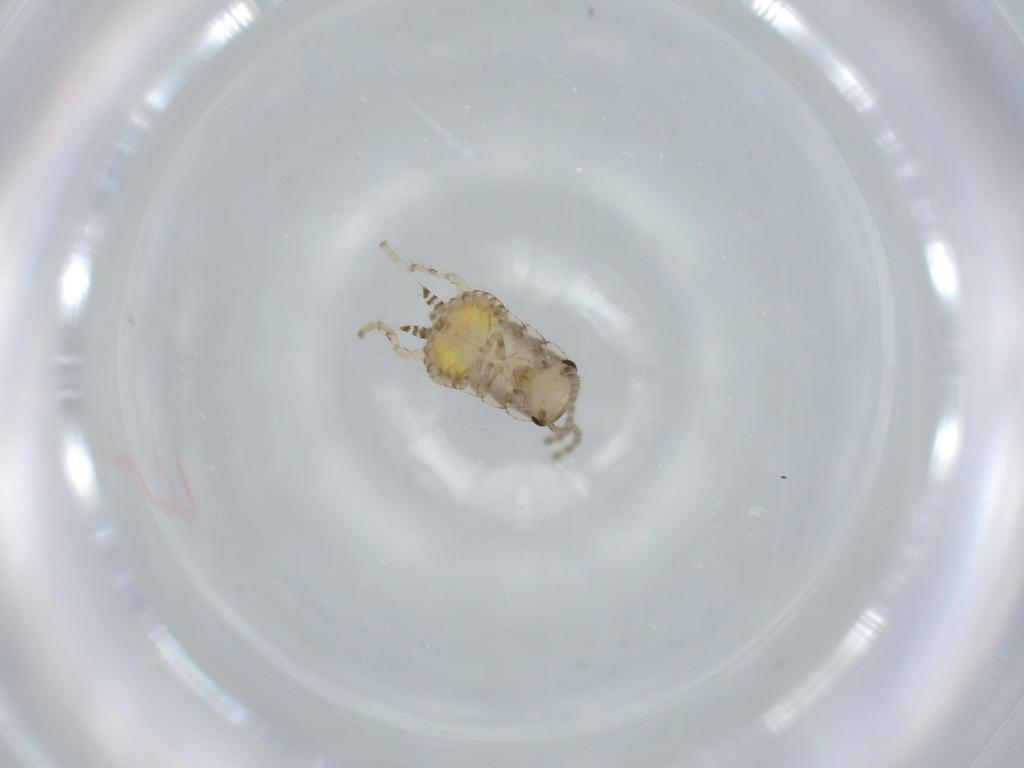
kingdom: Animalia
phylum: Arthropoda
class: Insecta
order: Blattodea
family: Ectobiidae
